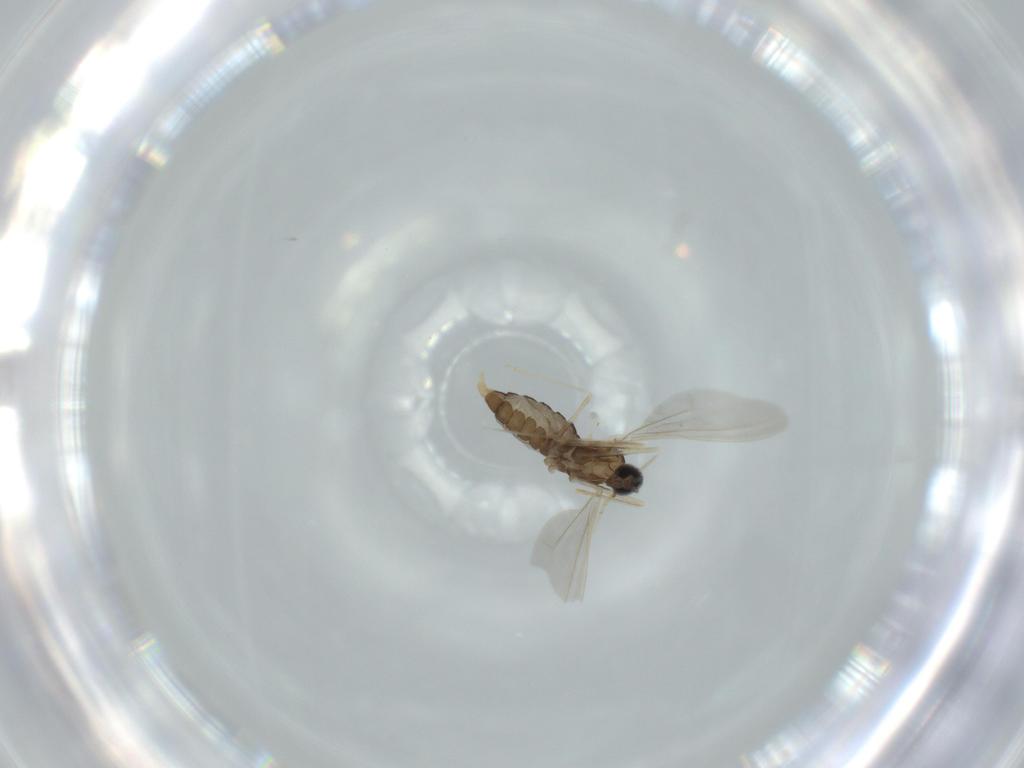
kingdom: Animalia
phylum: Arthropoda
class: Insecta
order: Diptera
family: Cecidomyiidae
